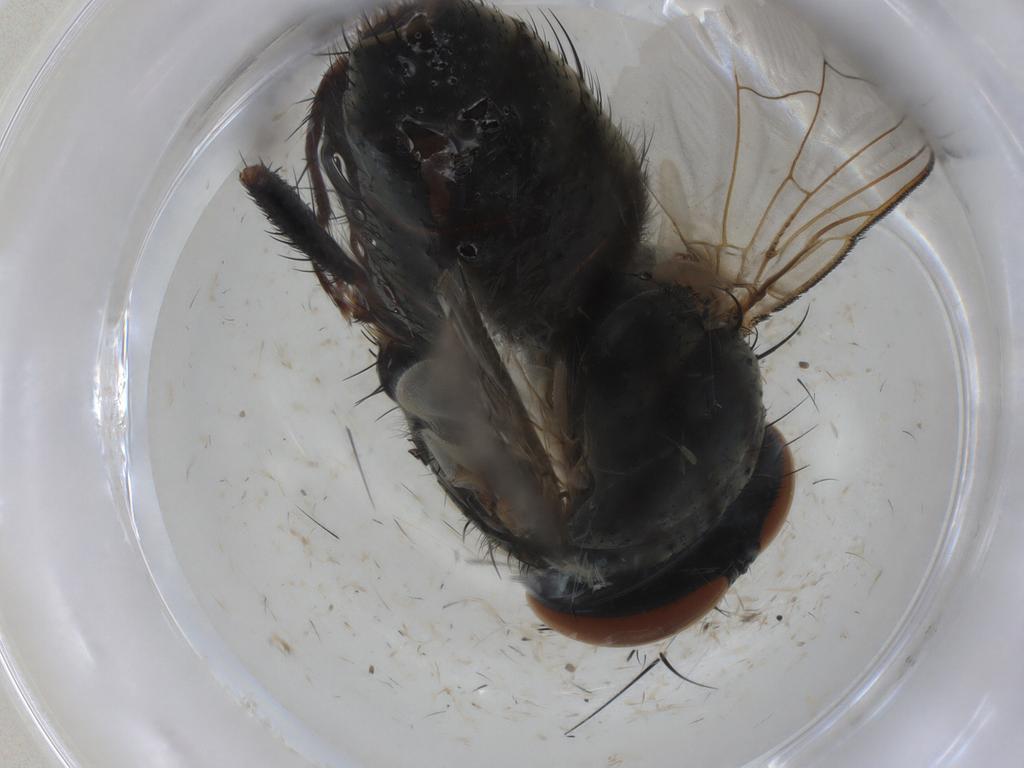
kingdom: Animalia
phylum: Arthropoda
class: Insecta
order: Diptera
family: Sarcophagidae
